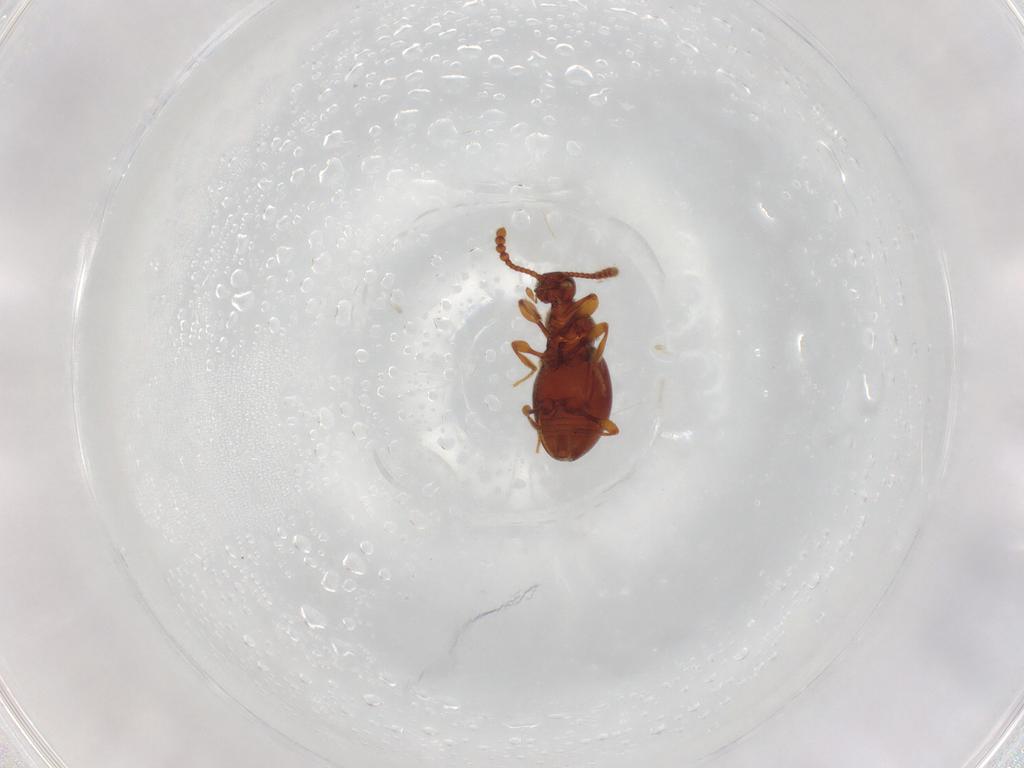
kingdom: Animalia
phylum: Arthropoda
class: Insecta
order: Coleoptera
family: Staphylinidae
